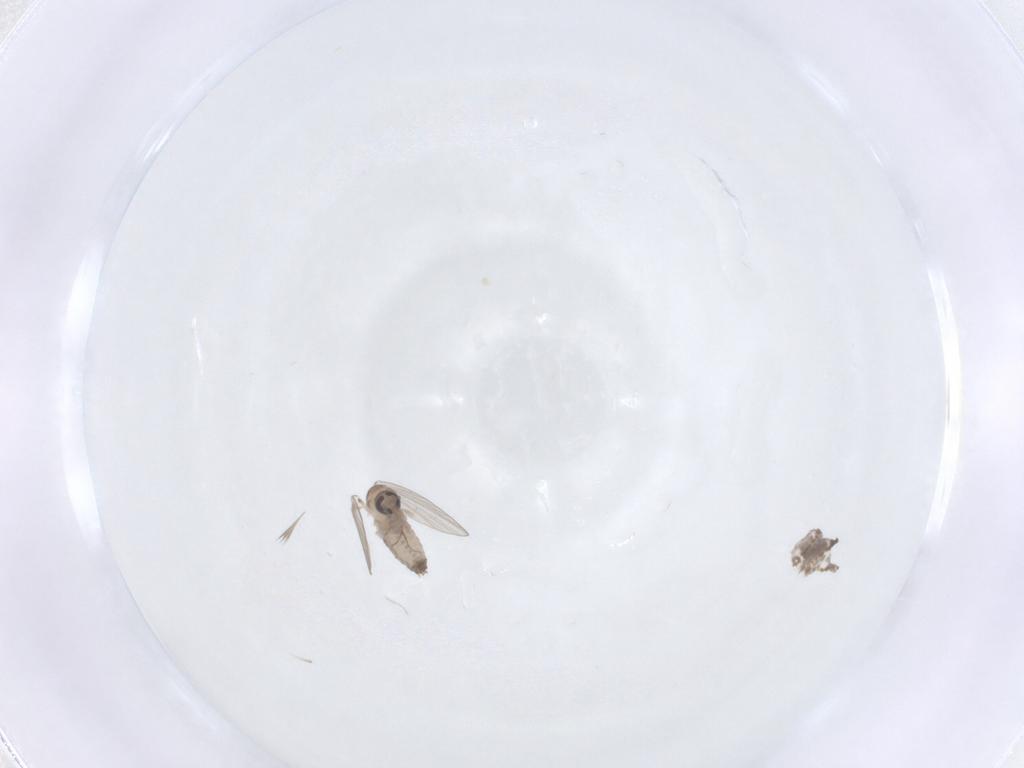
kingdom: Animalia
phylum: Arthropoda
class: Insecta
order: Diptera
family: Psychodidae
